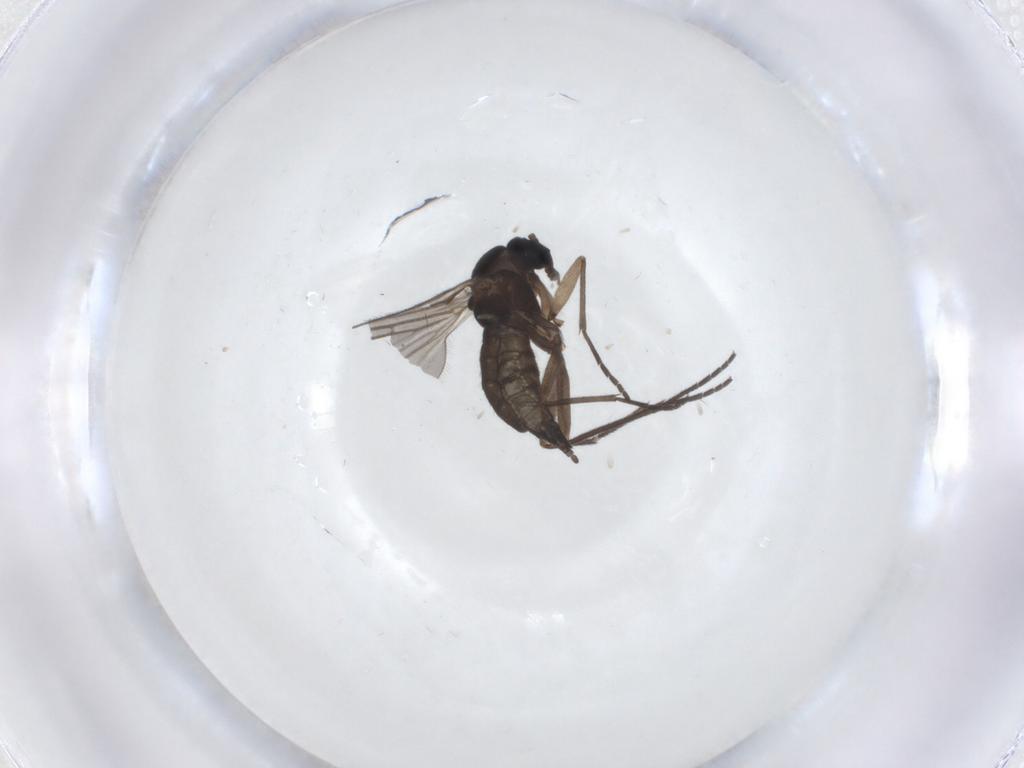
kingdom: Animalia
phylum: Arthropoda
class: Insecta
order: Diptera
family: Sciaridae
